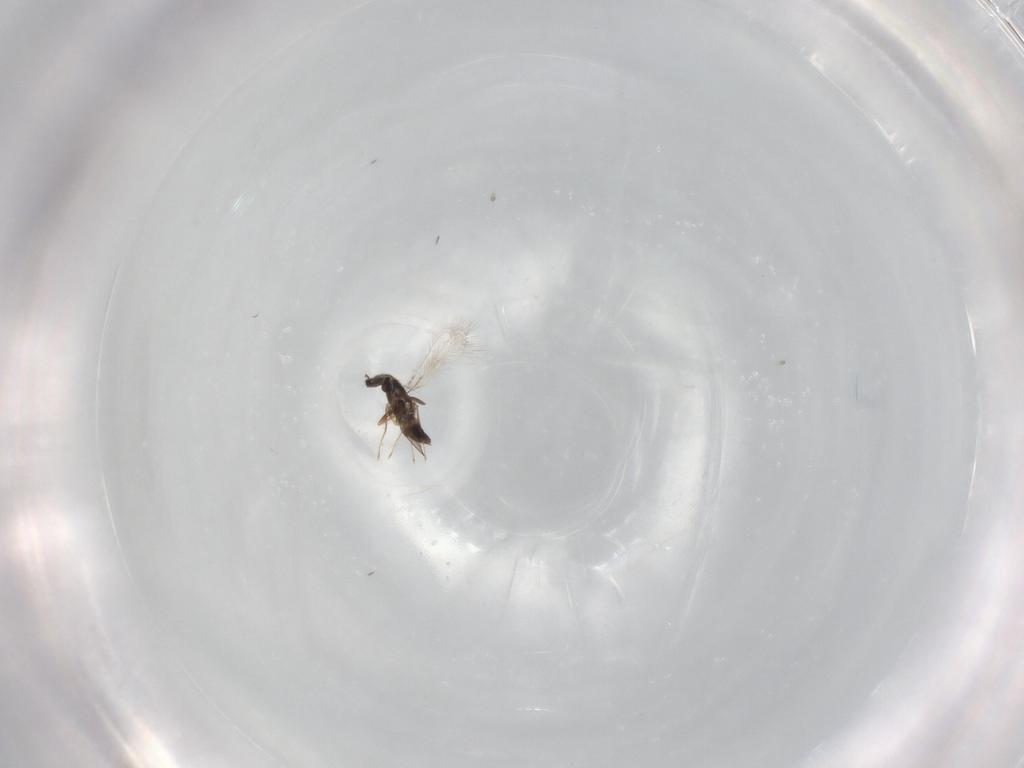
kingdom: Animalia
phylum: Arthropoda
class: Insecta
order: Hymenoptera
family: Mymaridae
